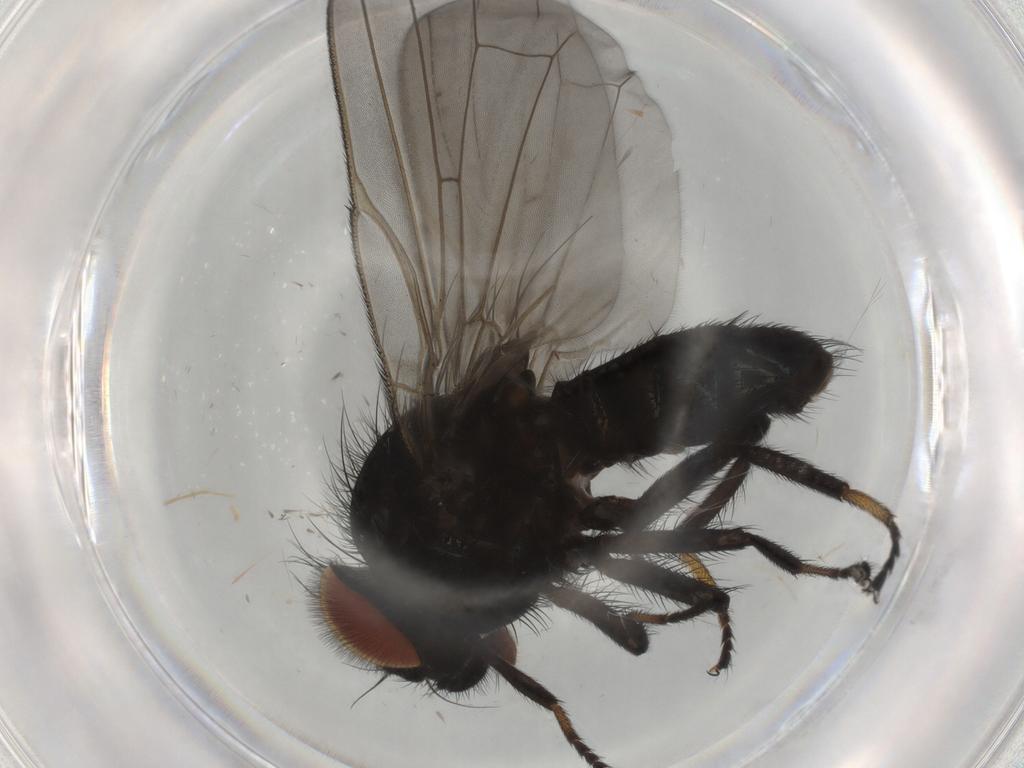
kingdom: Animalia
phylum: Arthropoda
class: Insecta
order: Diptera
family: Lonchaeidae
